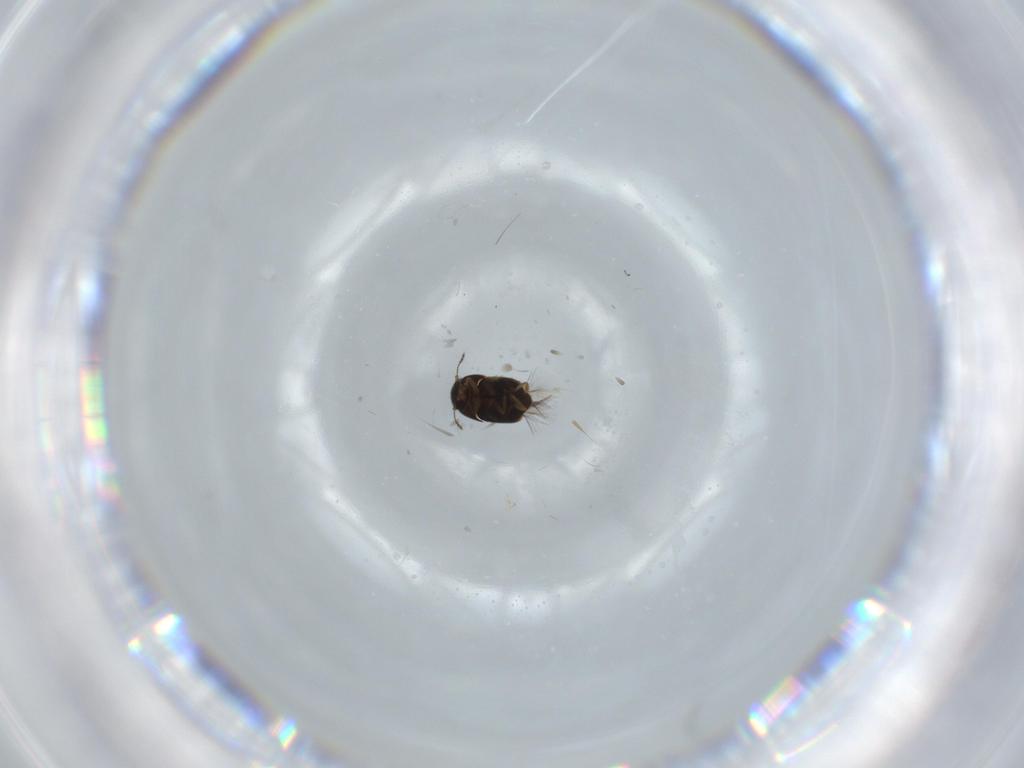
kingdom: Animalia
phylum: Arthropoda
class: Insecta
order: Coleoptera
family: Ptiliidae
